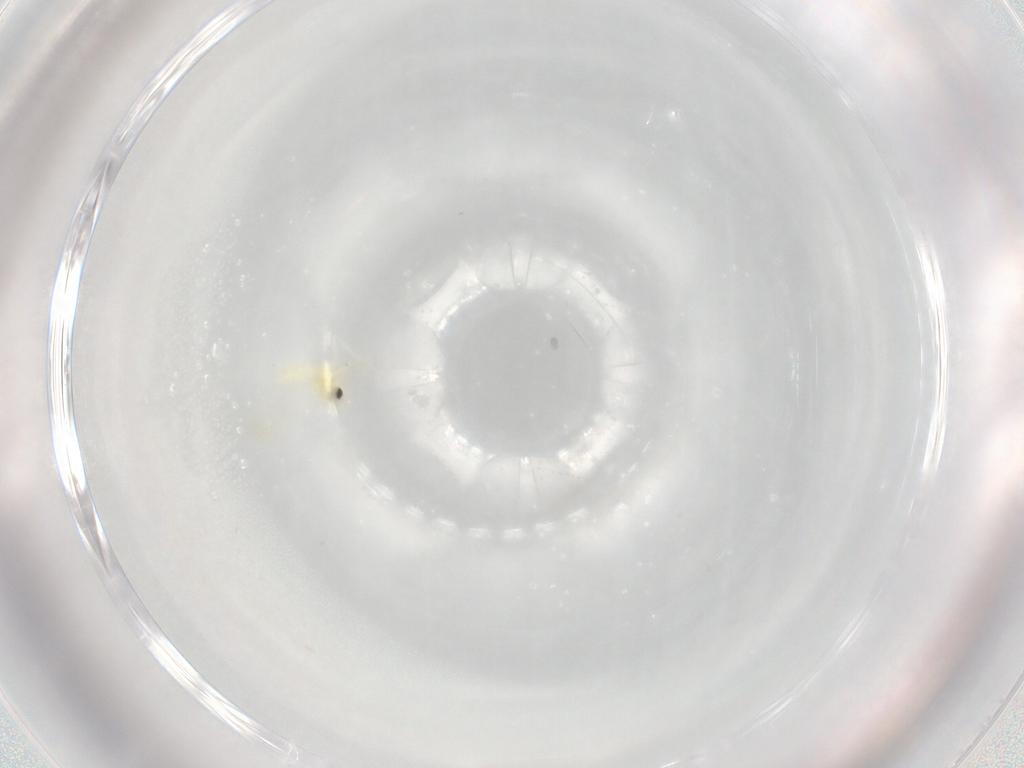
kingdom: Animalia
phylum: Arthropoda
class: Insecta
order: Hemiptera
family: Aleyrodidae
